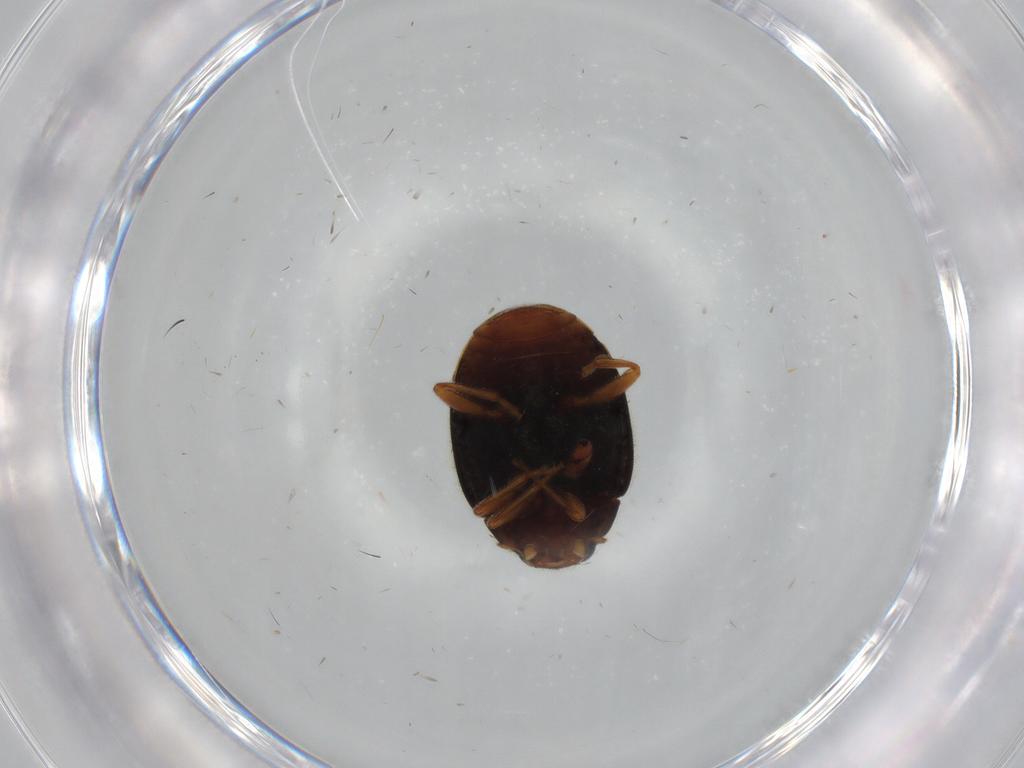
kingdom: Animalia
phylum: Arthropoda
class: Insecta
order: Coleoptera
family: Coccinellidae
